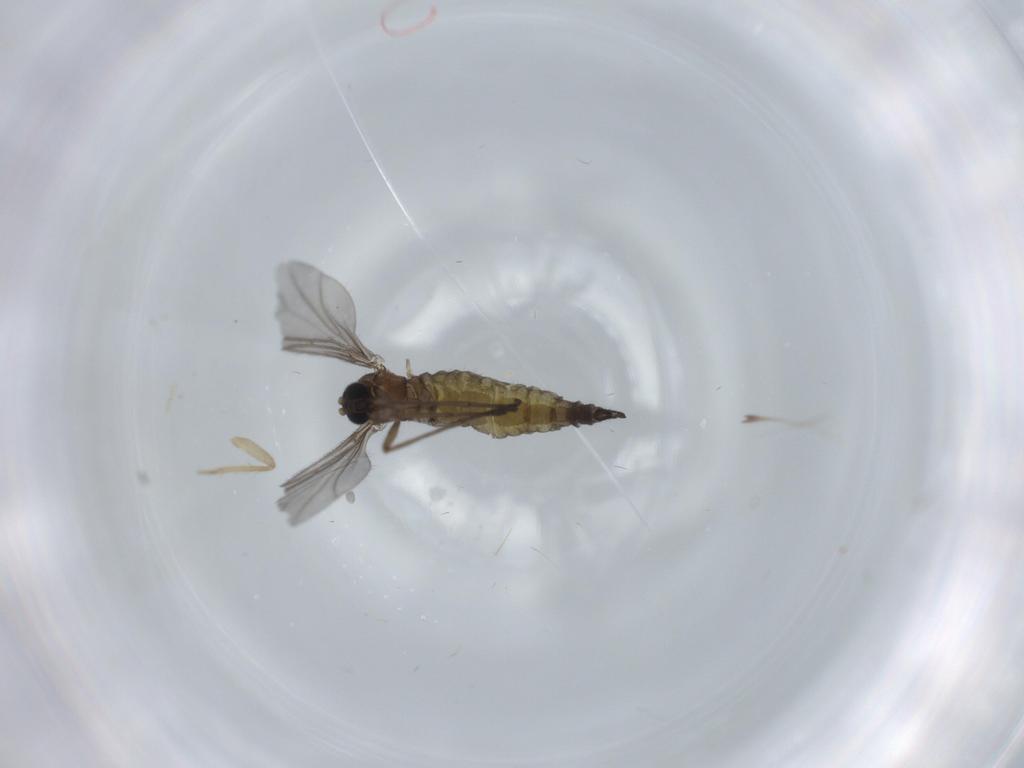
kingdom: Animalia
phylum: Arthropoda
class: Insecta
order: Diptera
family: Sciaridae
